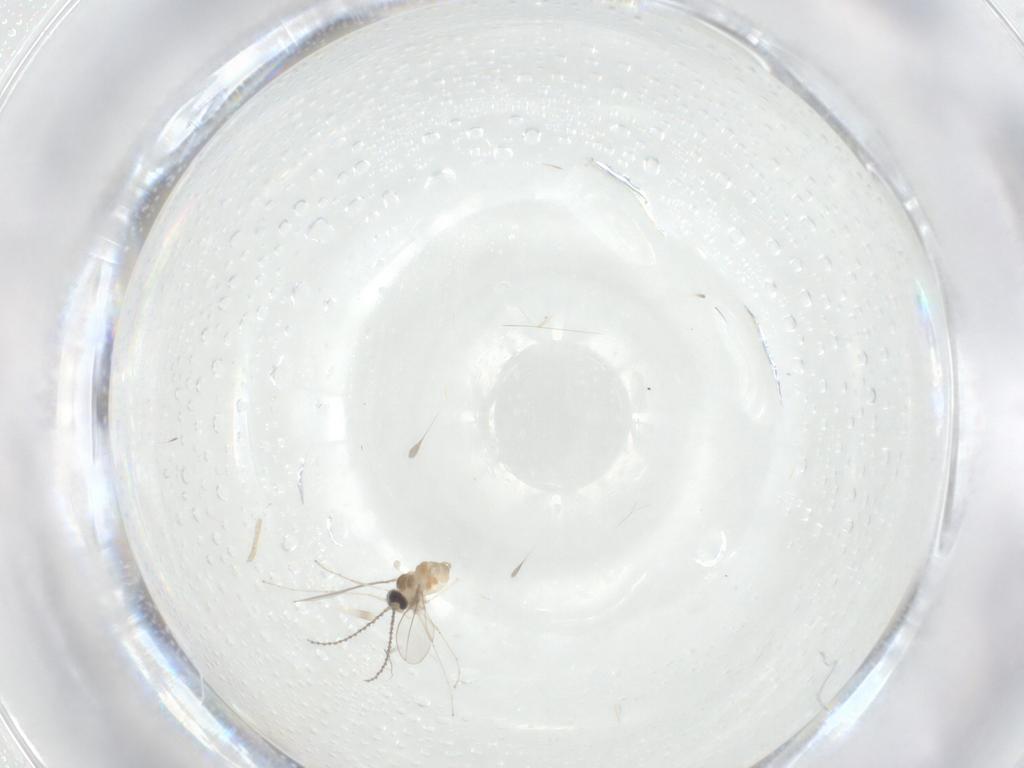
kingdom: Animalia
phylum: Arthropoda
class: Insecta
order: Diptera
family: Cecidomyiidae
